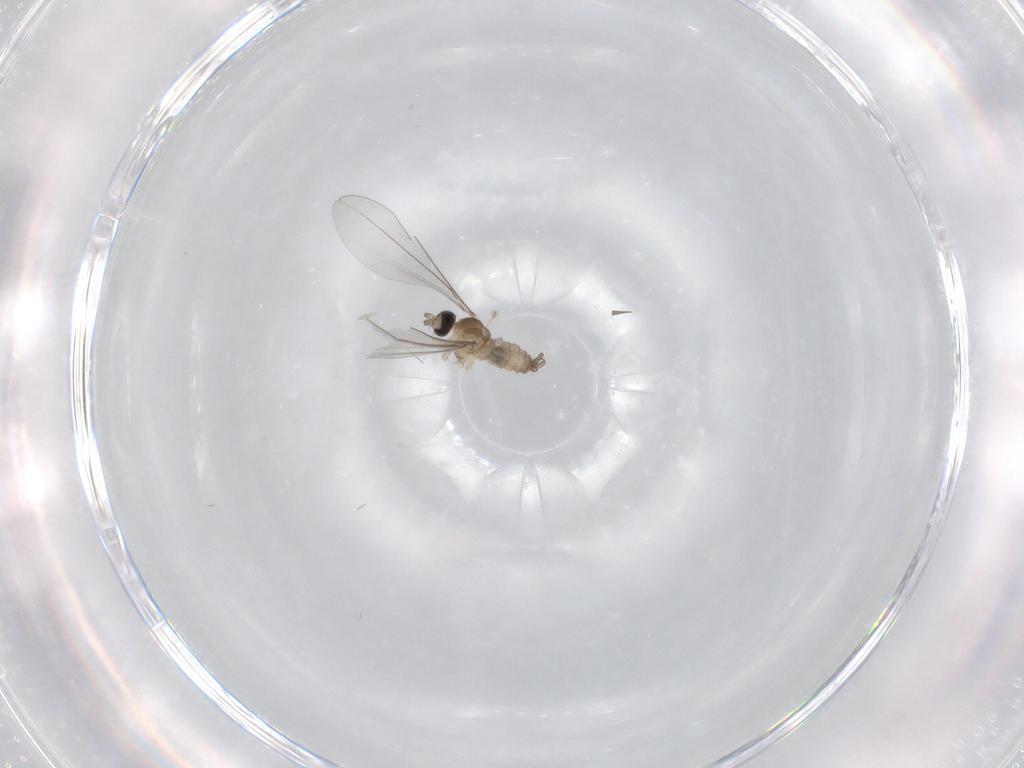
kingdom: Animalia
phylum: Arthropoda
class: Insecta
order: Diptera
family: Cecidomyiidae
